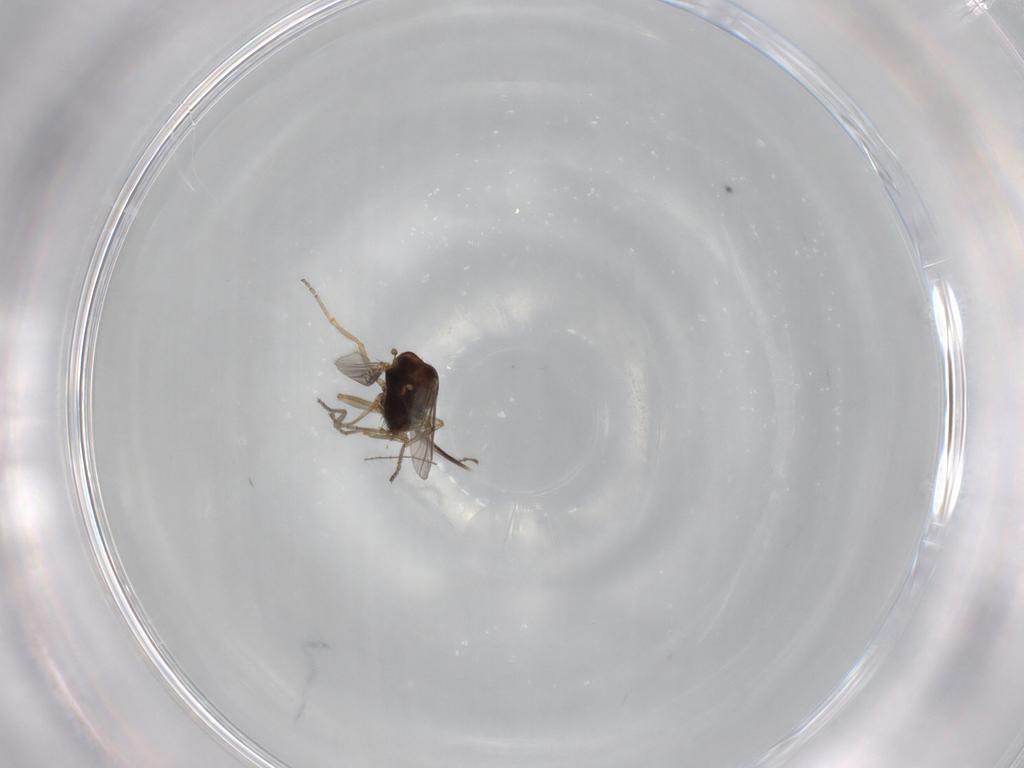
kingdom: Animalia
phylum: Arthropoda
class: Insecta
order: Diptera
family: Ceratopogonidae
